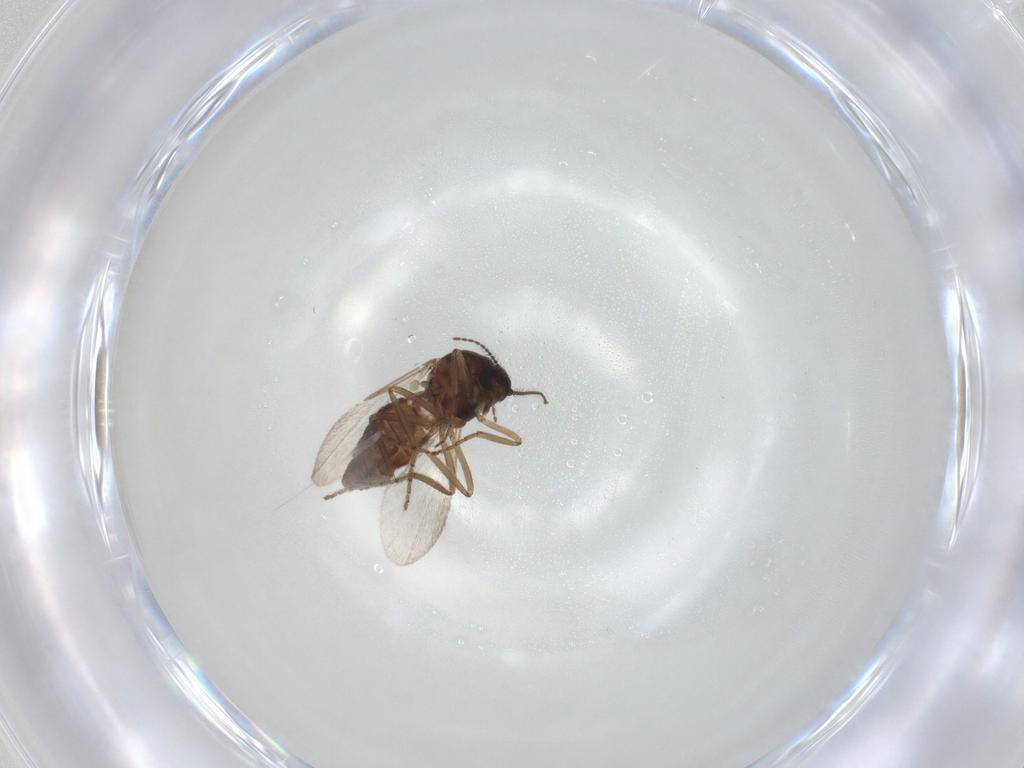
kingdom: Animalia
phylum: Arthropoda
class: Insecta
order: Diptera
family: Ceratopogonidae
